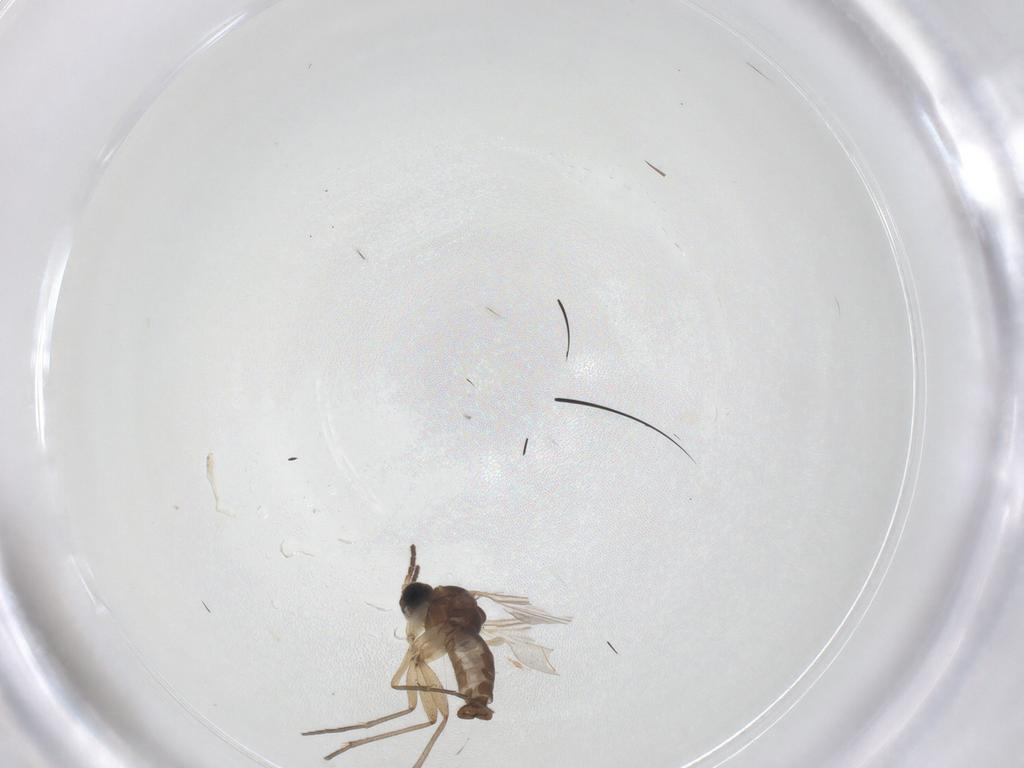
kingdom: Animalia
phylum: Arthropoda
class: Insecta
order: Diptera
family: Chironomidae
